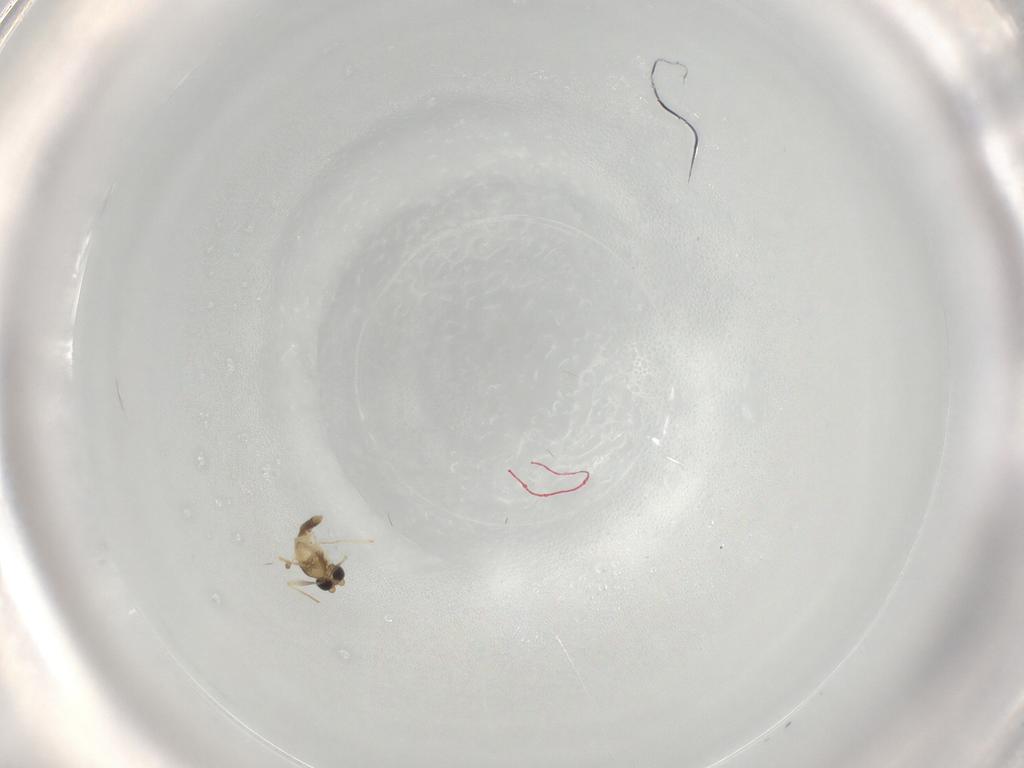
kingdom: Animalia
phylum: Arthropoda
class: Insecta
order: Diptera
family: Chironomidae
